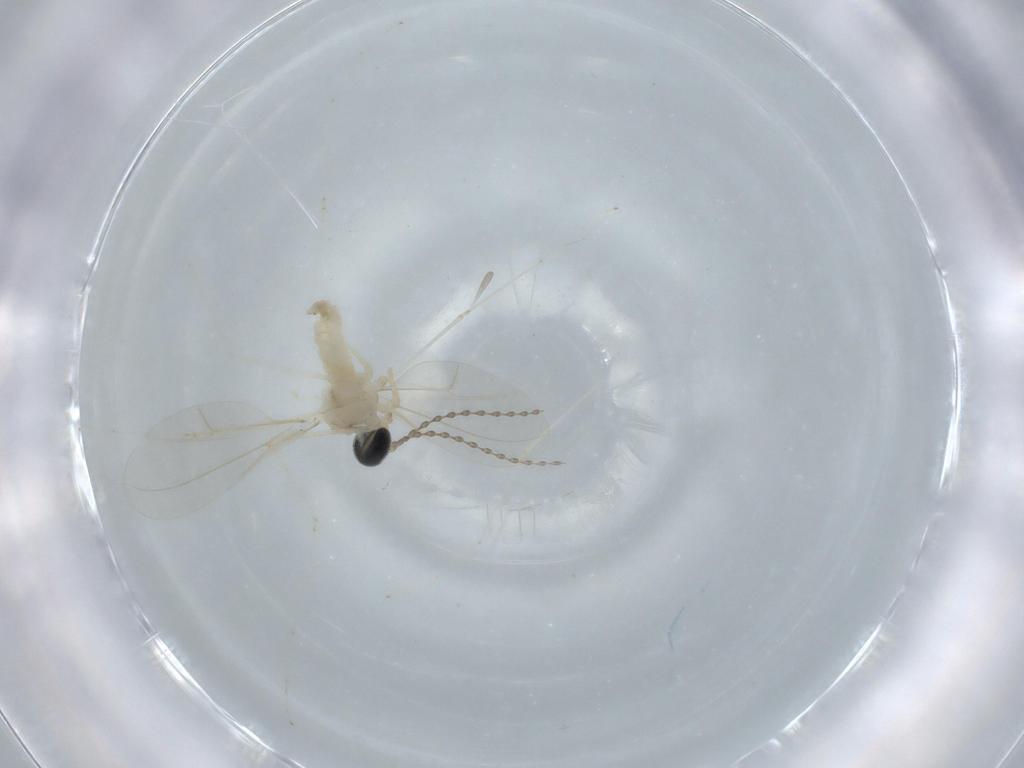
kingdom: Animalia
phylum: Arthropoda
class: Insecta
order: Diptera
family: Cecidomyiidae
